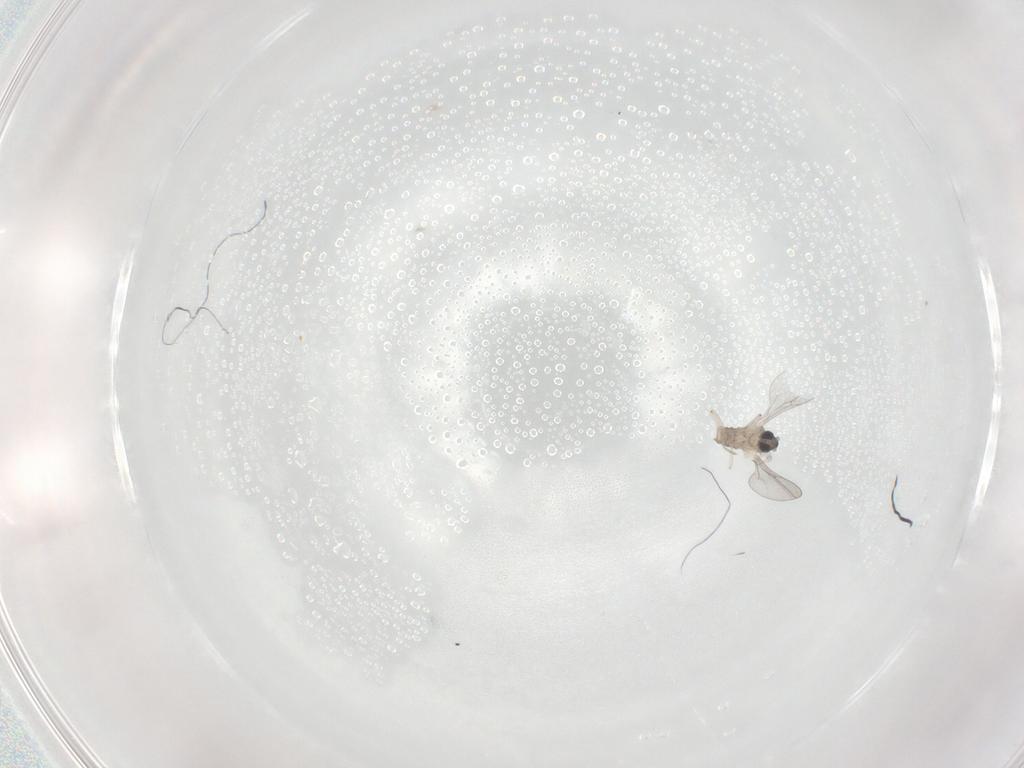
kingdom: Animalia
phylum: Arthropoda
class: Insecta
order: Diptera
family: Cecidomyiidae
